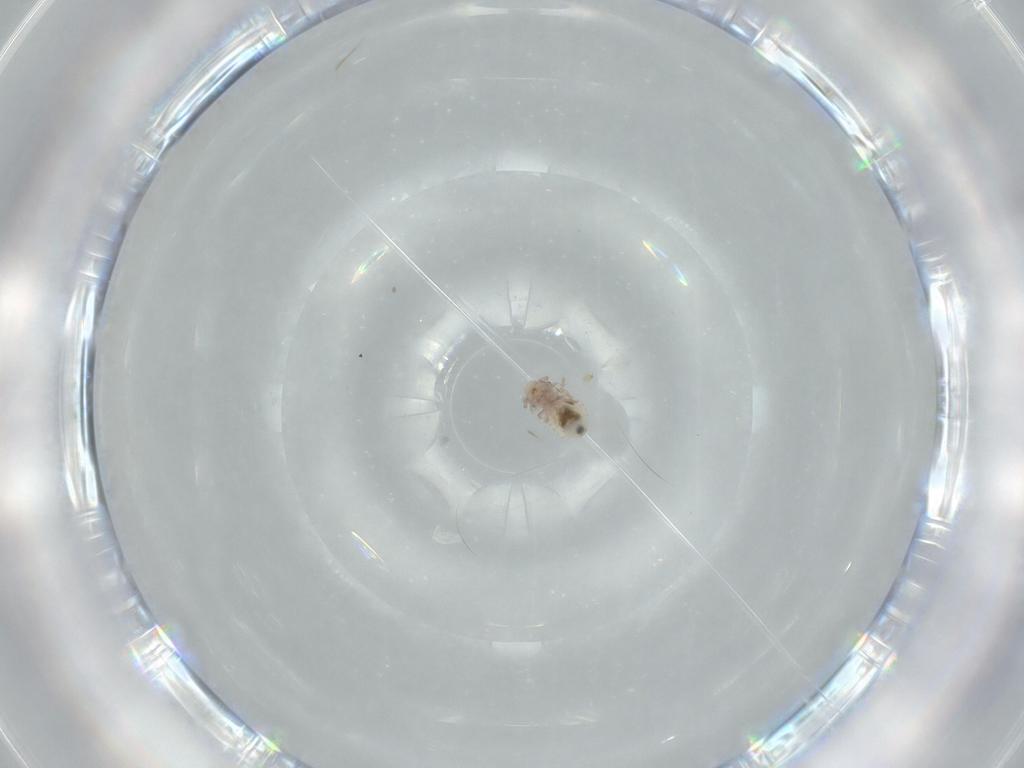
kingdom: Animalia
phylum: Arthropoda
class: Insecta
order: Psocodea
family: Psoquillidae
